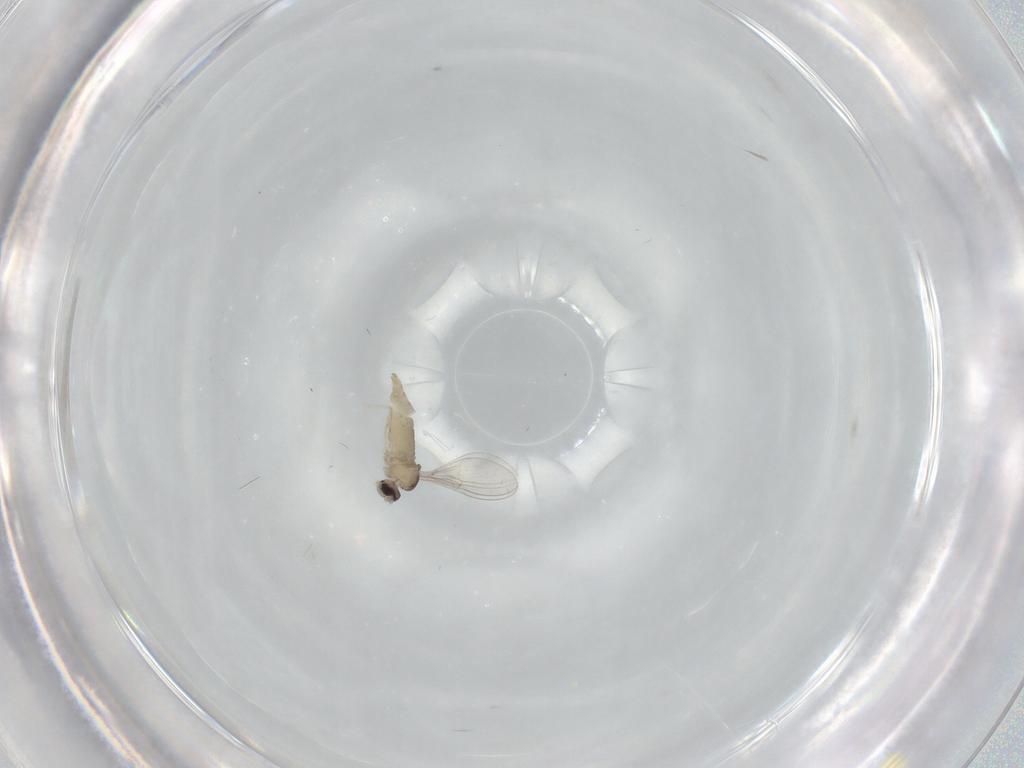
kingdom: Animalia
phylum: Arthropoda
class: Insecta
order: Diptera
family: Cecidomyiidae
